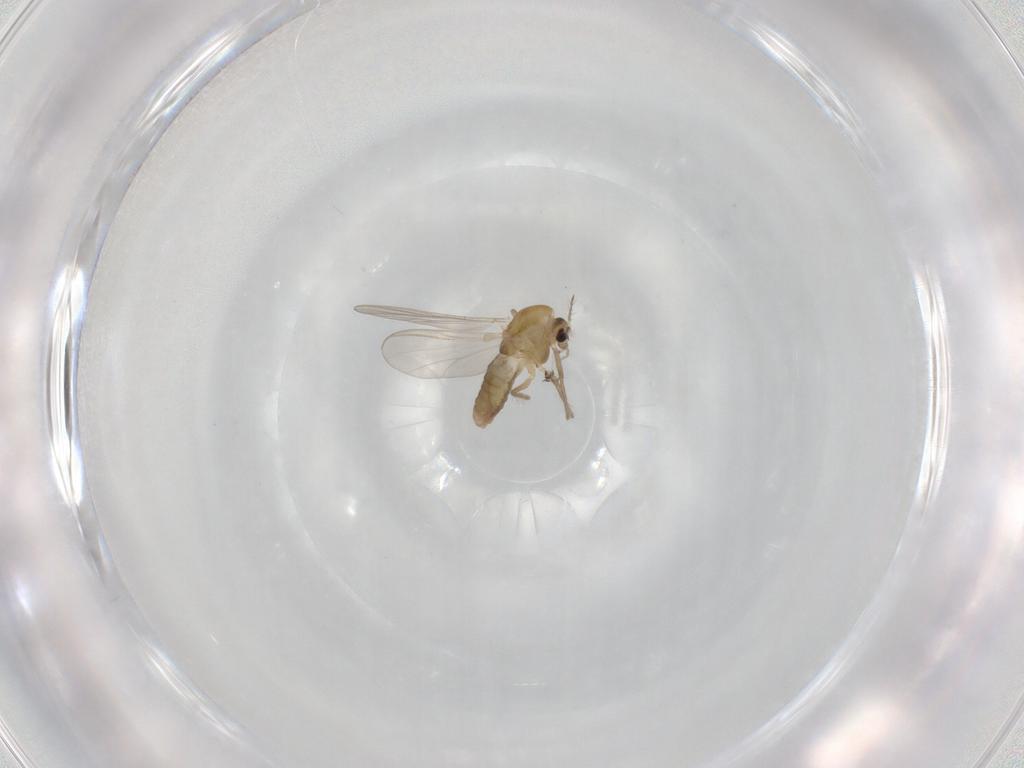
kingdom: Animalia
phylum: Arthropoda
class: Insecta
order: Diptera
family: Chironomidae
